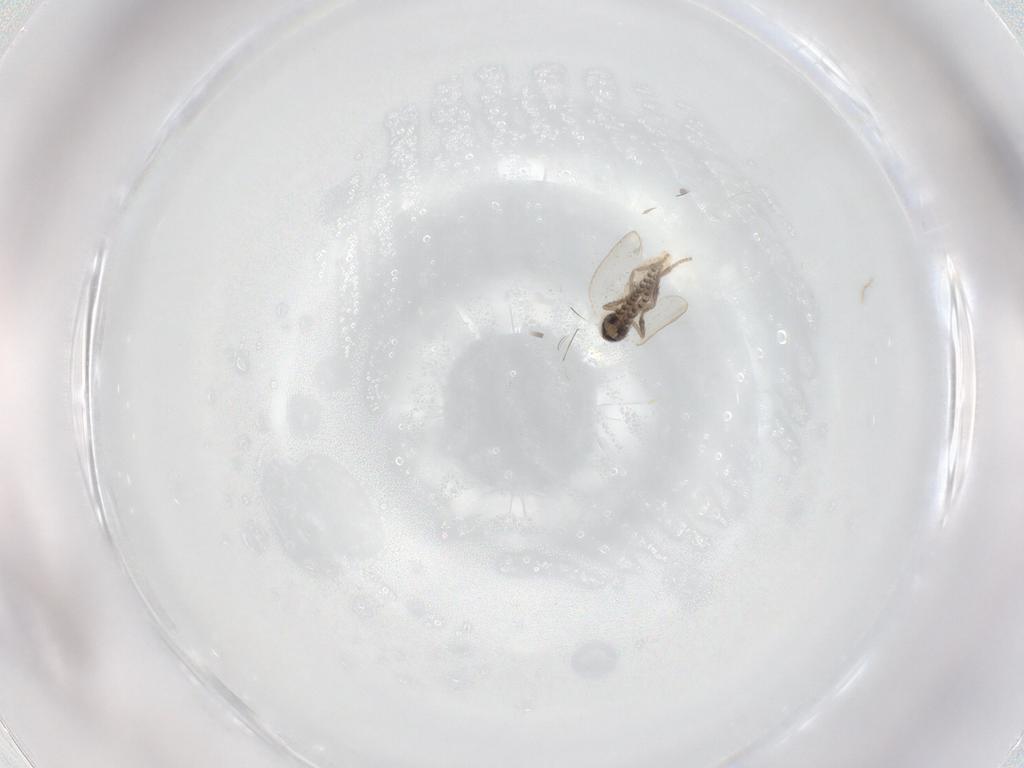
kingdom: Animalia
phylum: Arthropoda
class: Insecta
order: Diptera
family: Psychodidae
